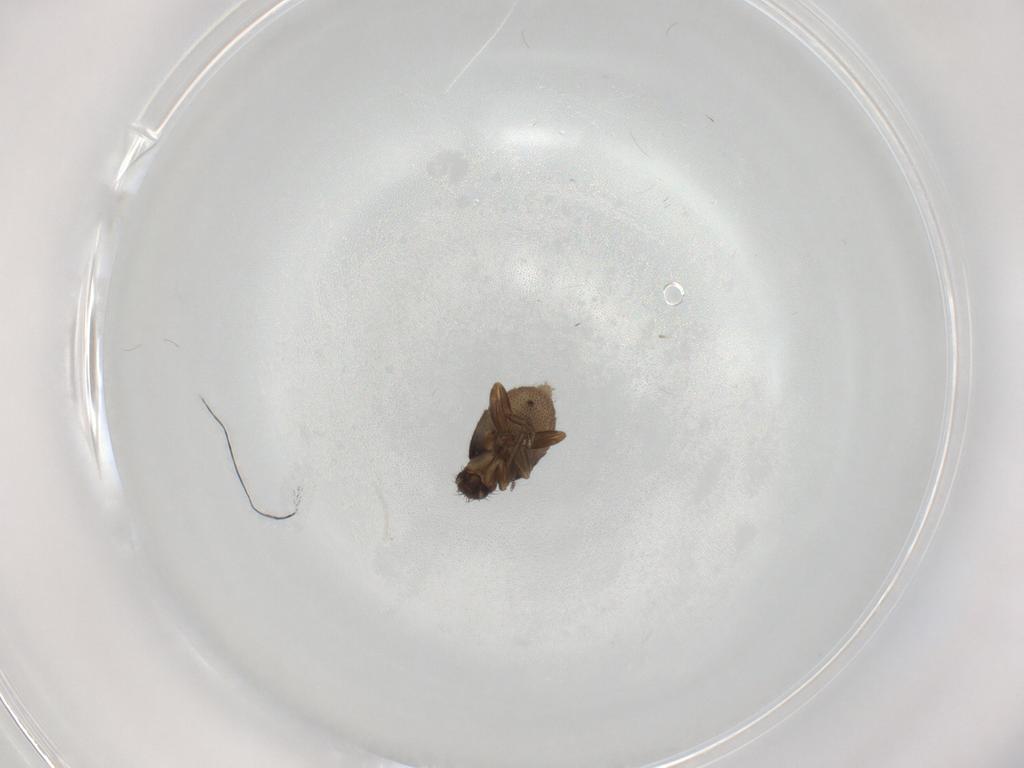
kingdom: Animalia
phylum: Arthropoda
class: Insecta
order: Diptera
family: Phoridae
